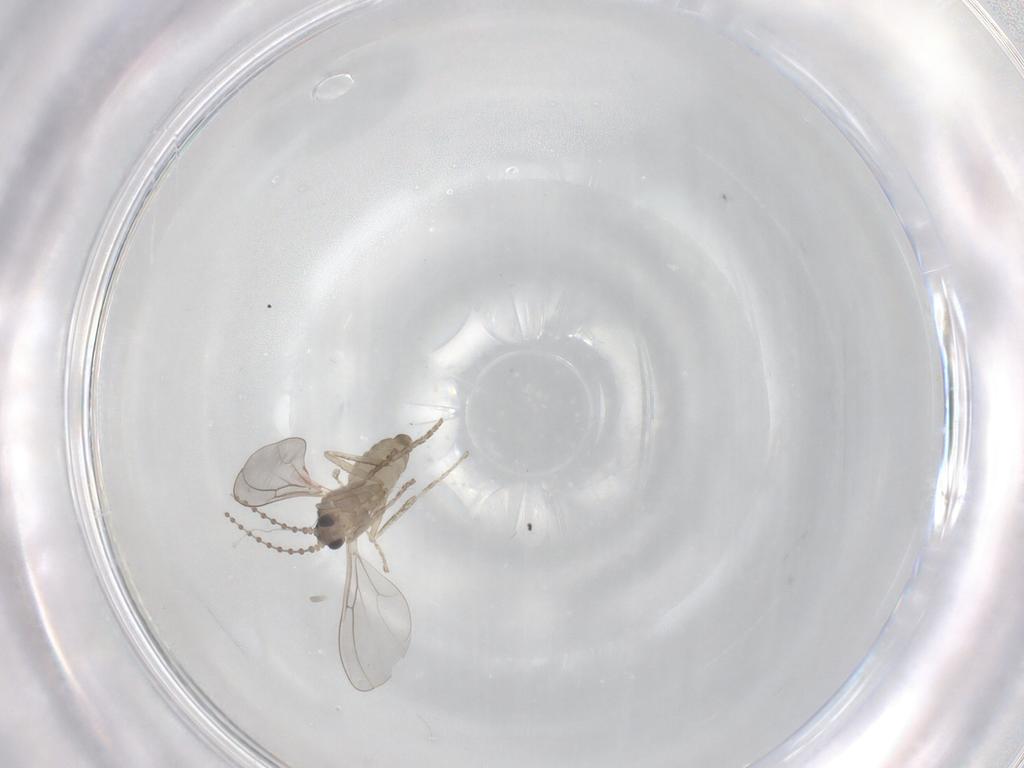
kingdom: Animalia
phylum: Arthropoda
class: Insecta
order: Diptera
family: Cecidomyiidae
